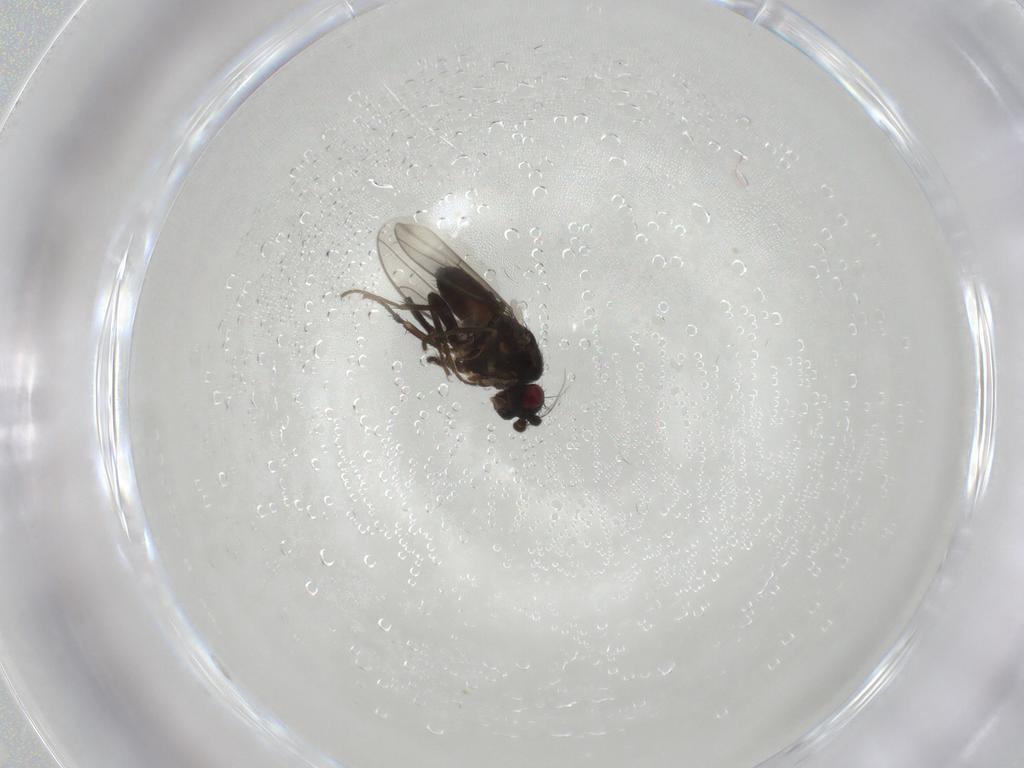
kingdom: Animalia
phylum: Arthropoda
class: Insecta
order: Diptera
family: Sphaeroceridae
